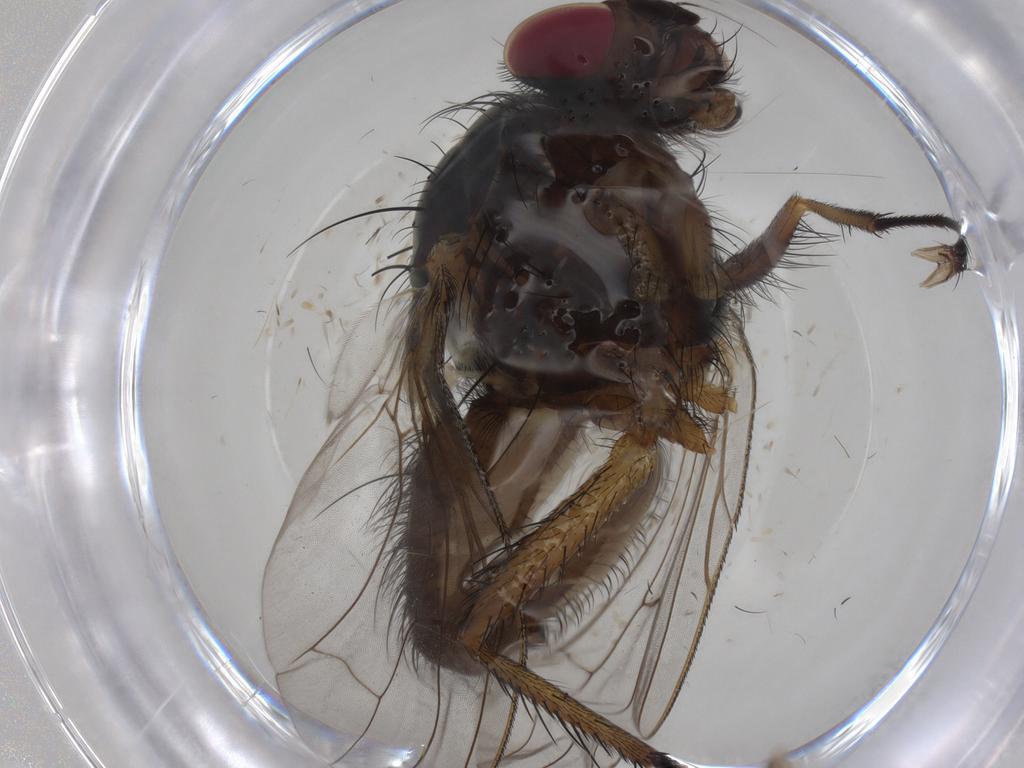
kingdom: Animalia
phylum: Arthropoda
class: Insecta
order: Diptera
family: Anthomyiidae
